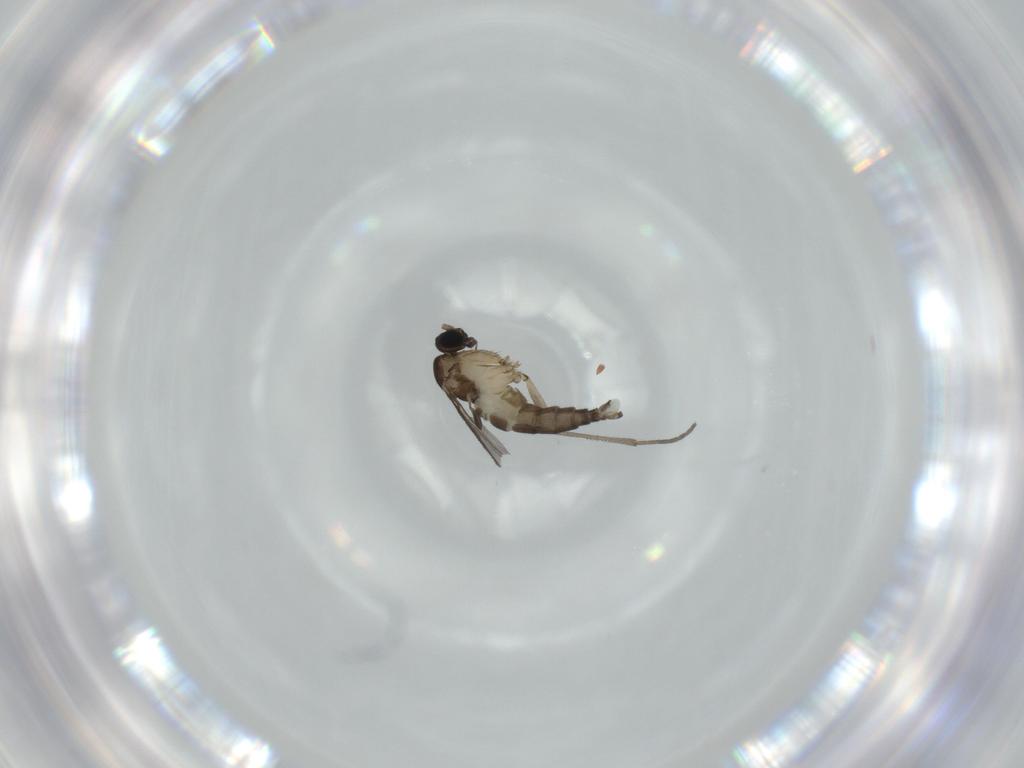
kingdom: Animalia
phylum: Arthropoda
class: Insecta
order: Diptera
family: Sciaridae
